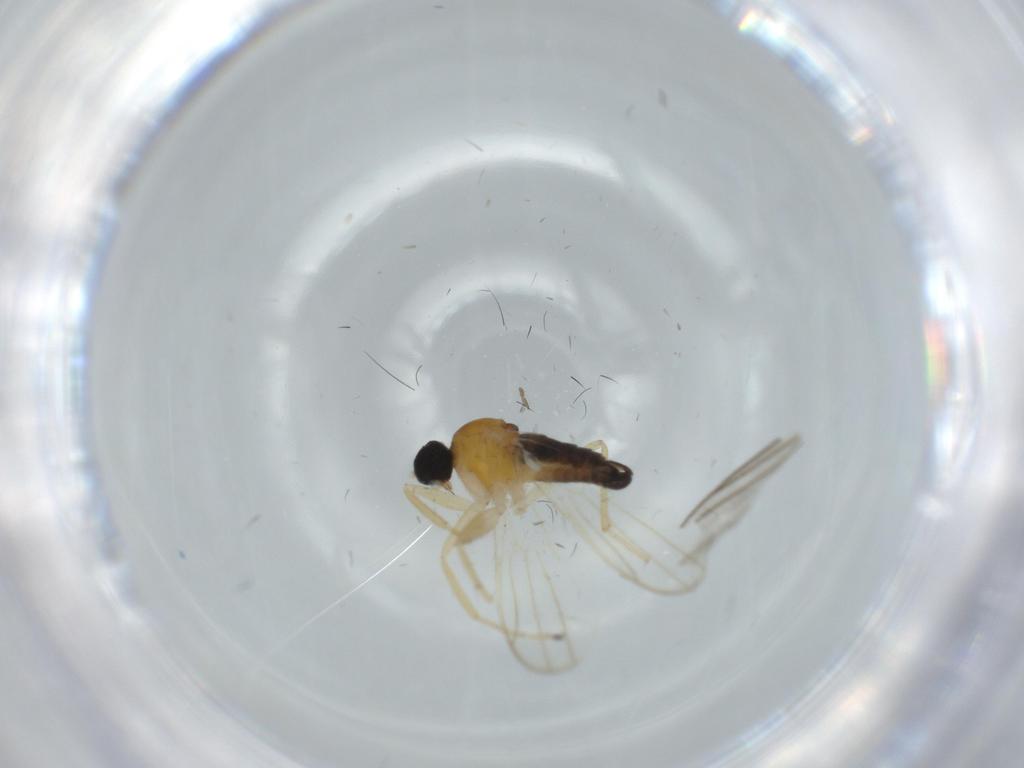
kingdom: Animalia
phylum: Arthropoda
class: Insecta
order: Diptera
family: Hybotidae
